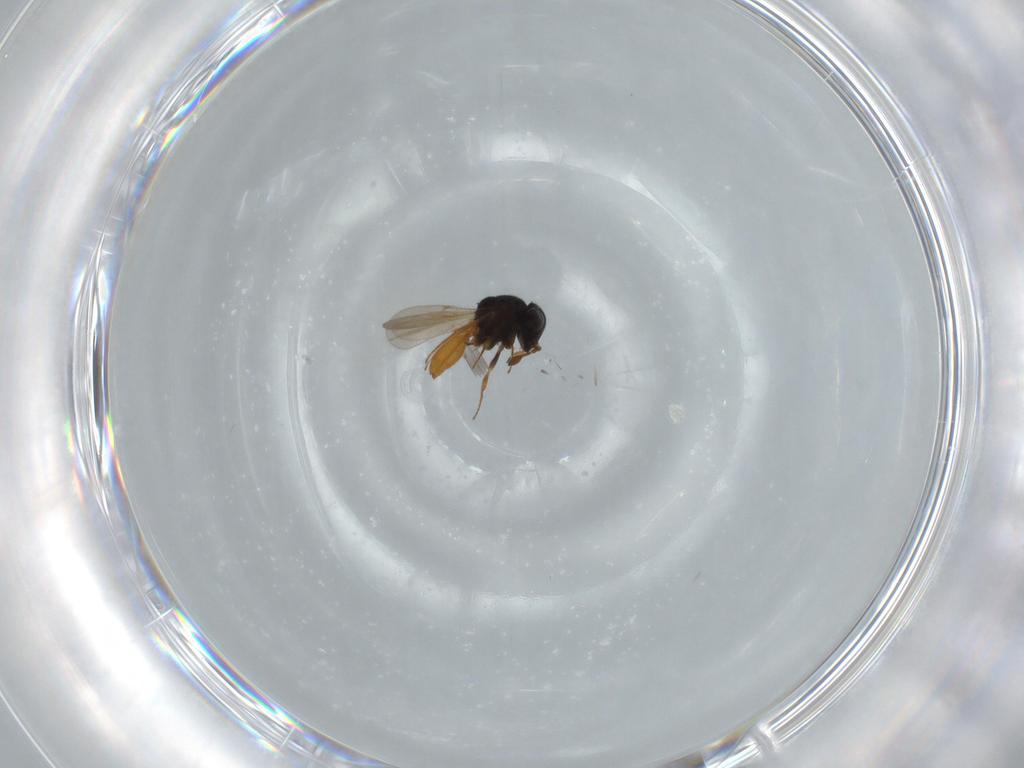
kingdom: Animalia
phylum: Arthropoda
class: Insecta
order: Hymenoptera
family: Scelionidae
